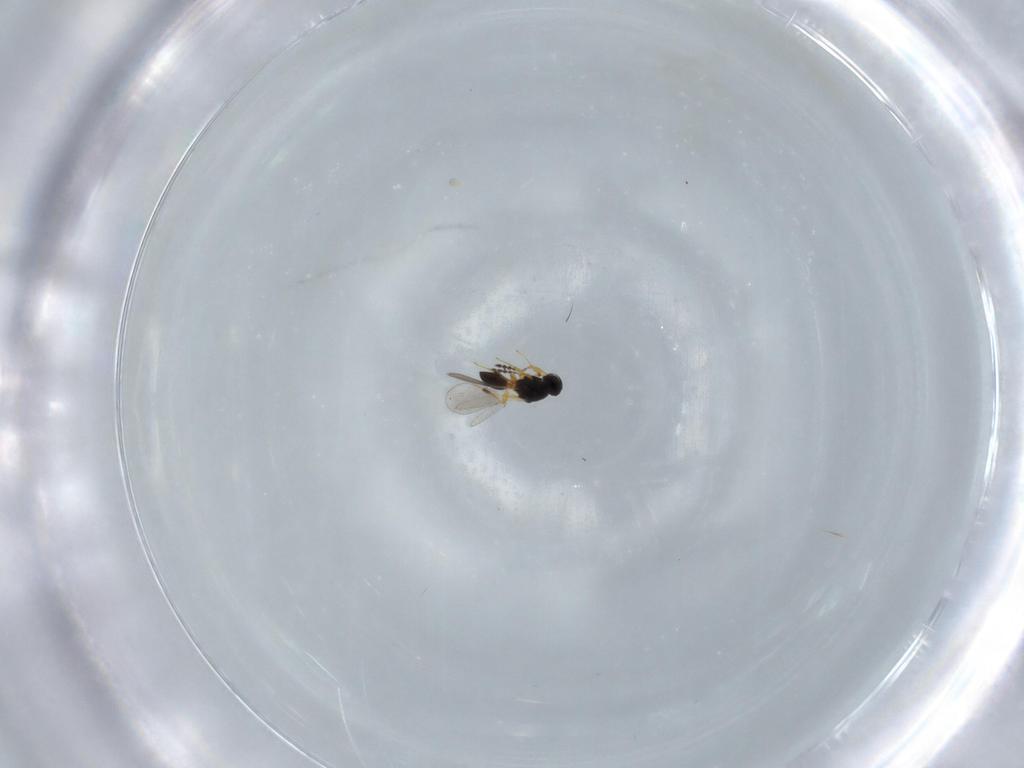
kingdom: Animalia
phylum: Arthropoda
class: Insecta
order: Hymenoptera
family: Platygastridae
